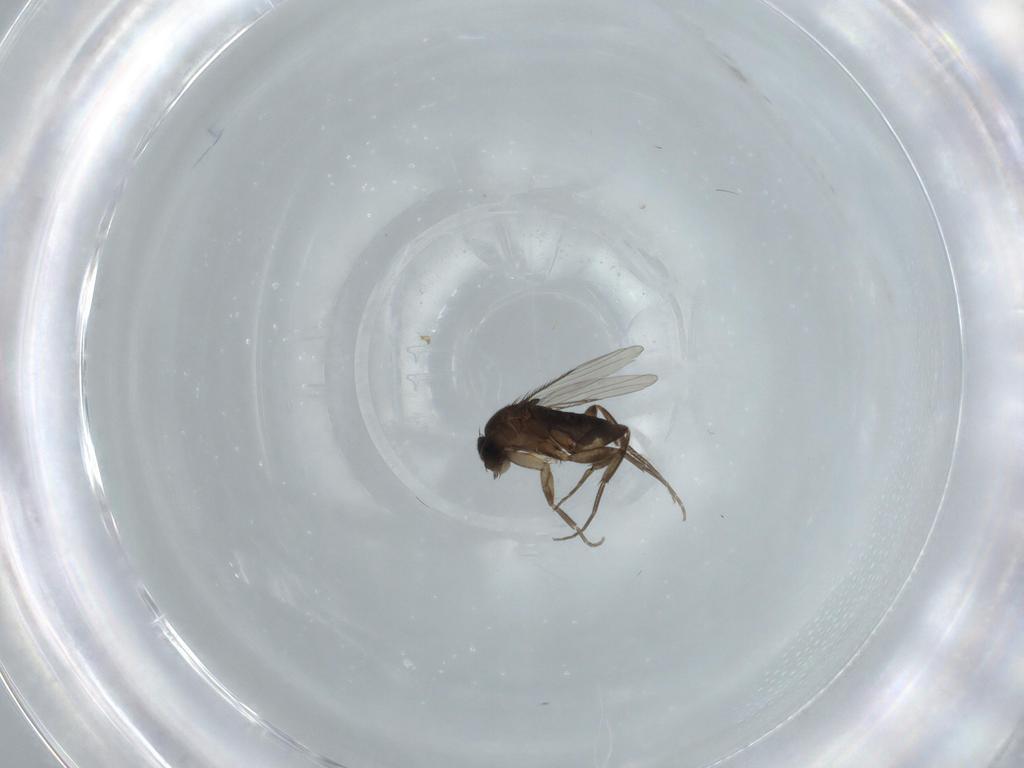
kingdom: Animalia
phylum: Arthropoda
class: Insecta
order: Diptera
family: Phoridae
